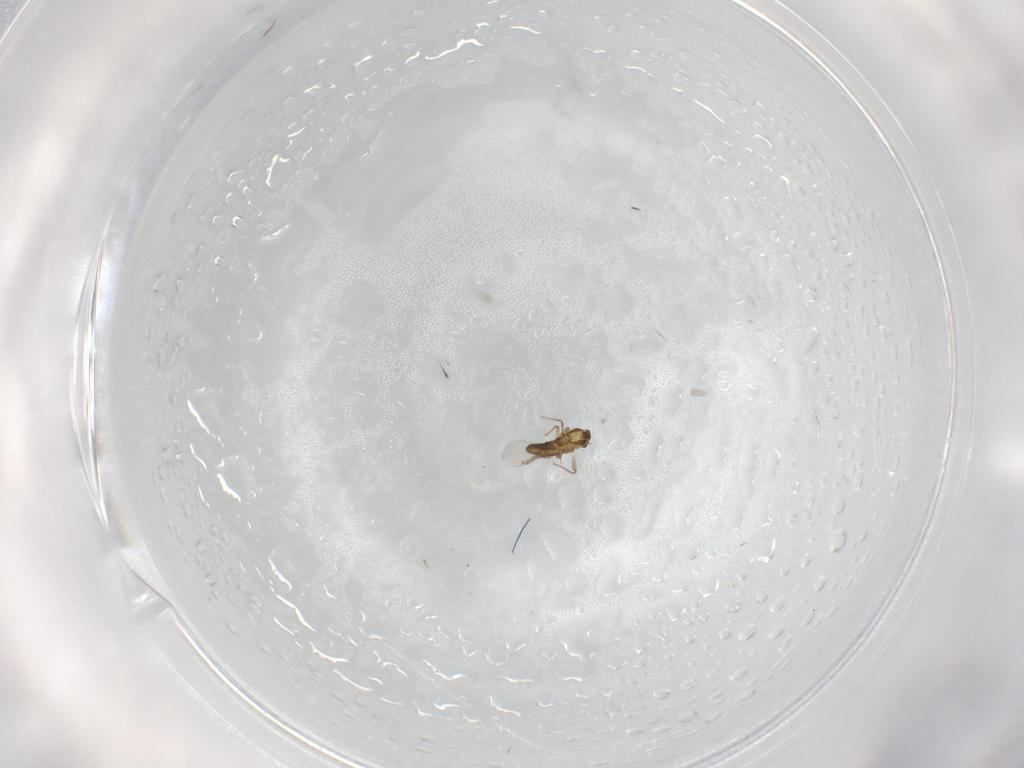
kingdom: Animalia
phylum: Arthropoda
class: Insecta
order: Diptera
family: Chironomidae
